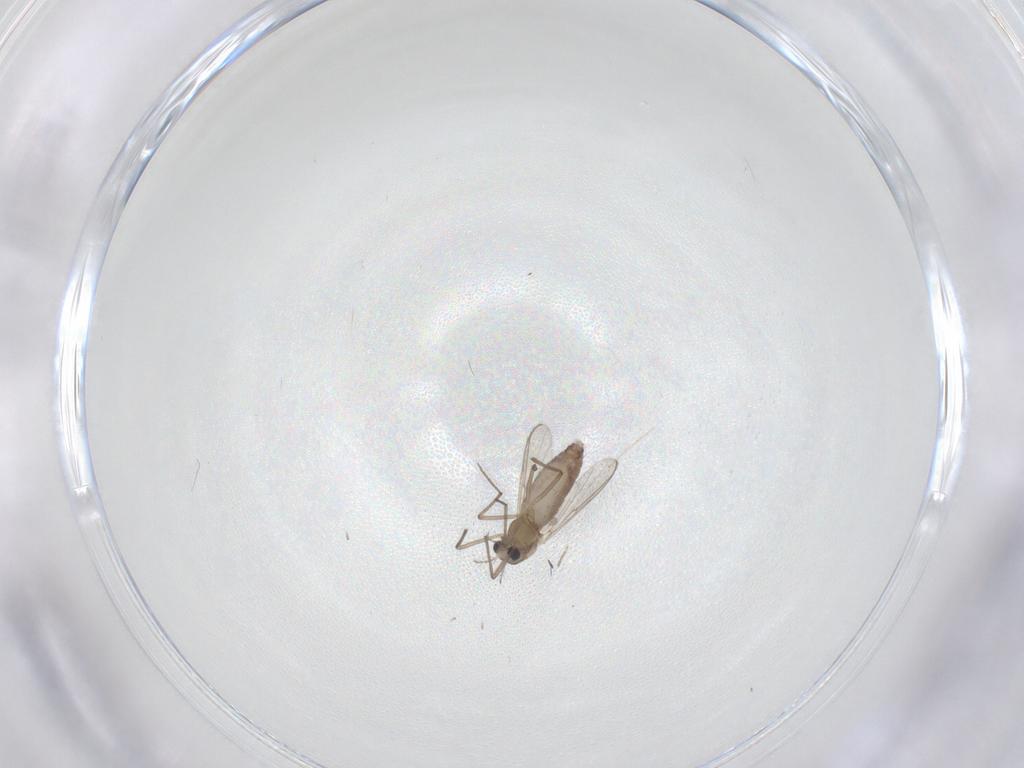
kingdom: Animalia
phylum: Arthropoda
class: Insecta
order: Diptera
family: Chironomidae
